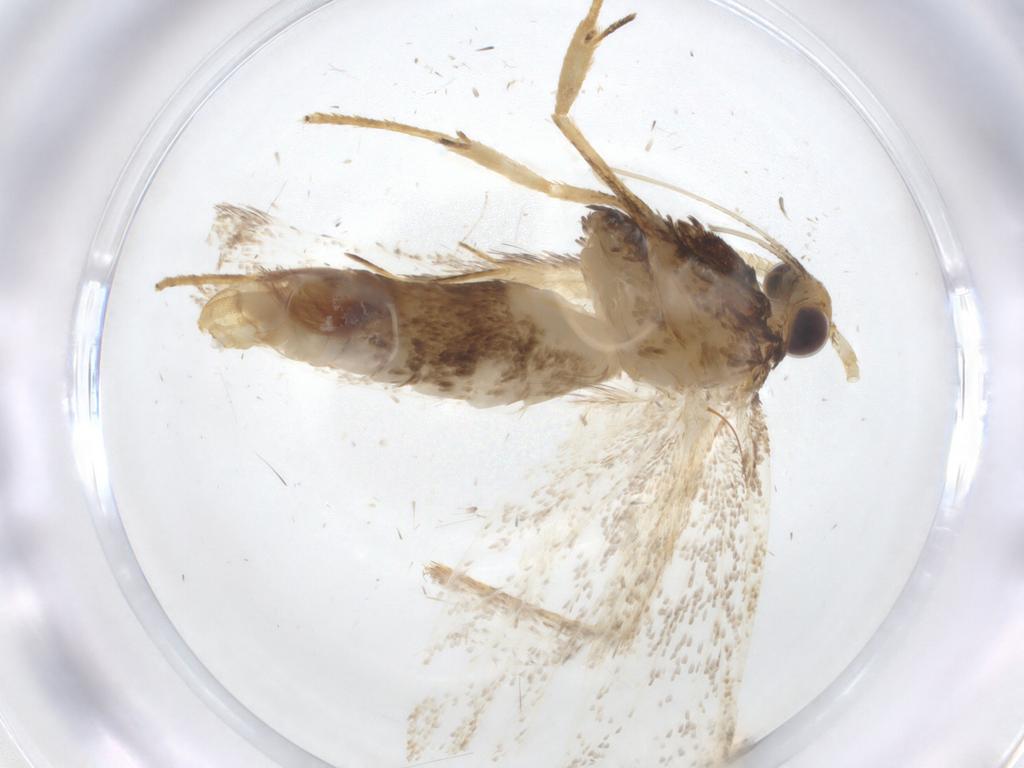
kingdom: Animalia
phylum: Arthropoda
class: Insecta
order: Lepidoptera
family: Lecithoceridae
